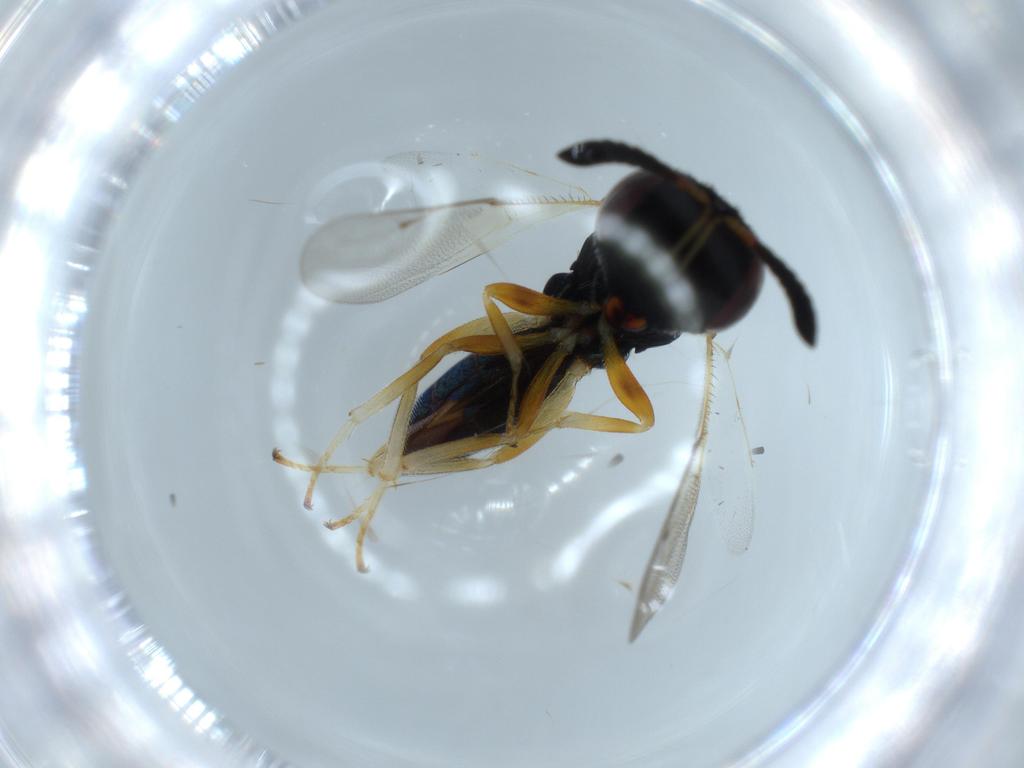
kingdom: Animalia
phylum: Arthropoda
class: Insecta
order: Hymenoptera
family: Agaonidae
